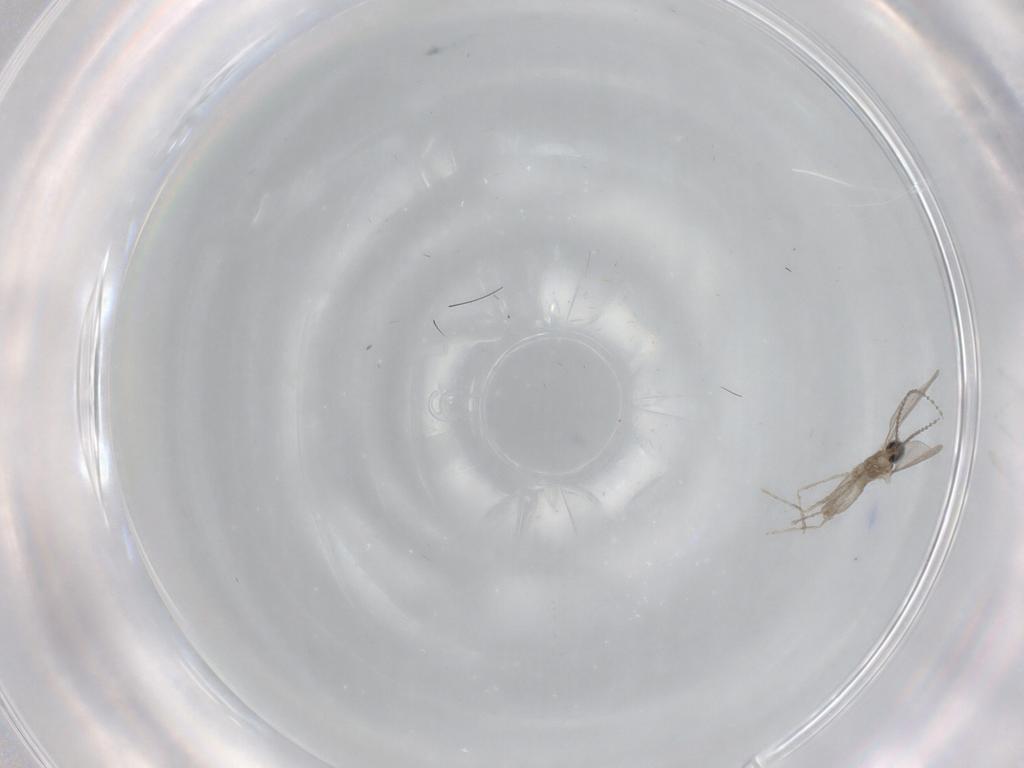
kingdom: Animalia
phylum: Arthropoda
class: Insecta
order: Diptera
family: Cecidomyiidae
